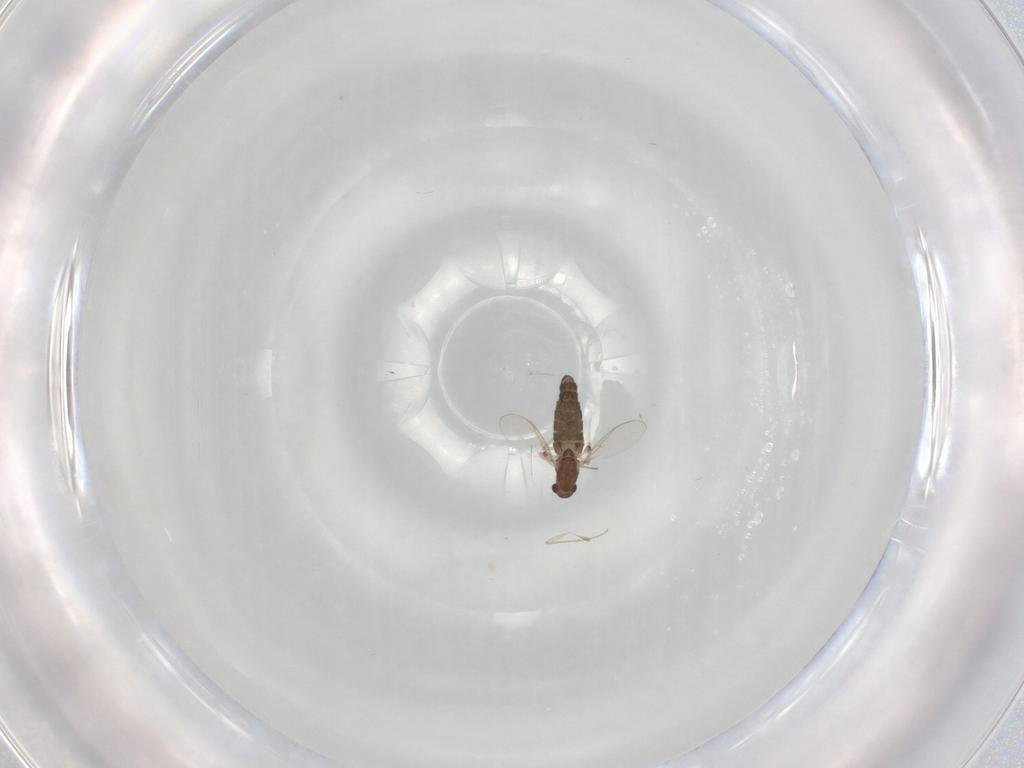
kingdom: Animalia
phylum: Arthropoda
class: Insecta
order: Diptera
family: Chironomidae
